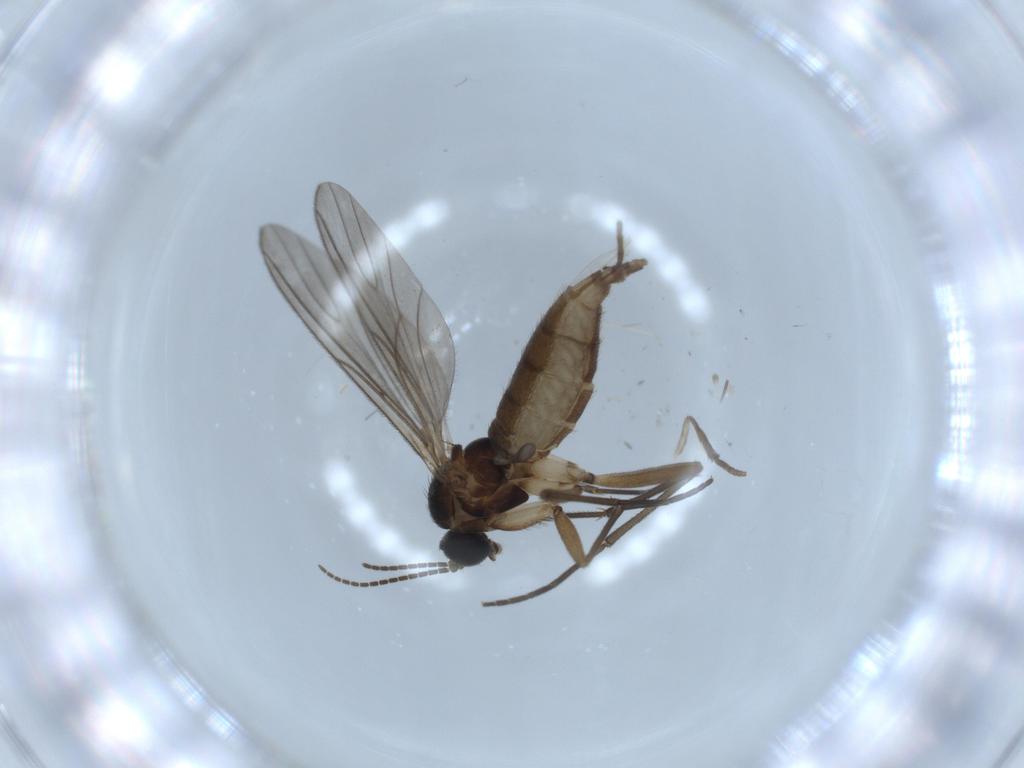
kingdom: Animalia
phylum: Arthropoda
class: Insecta
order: Diptera
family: Sciaridae
